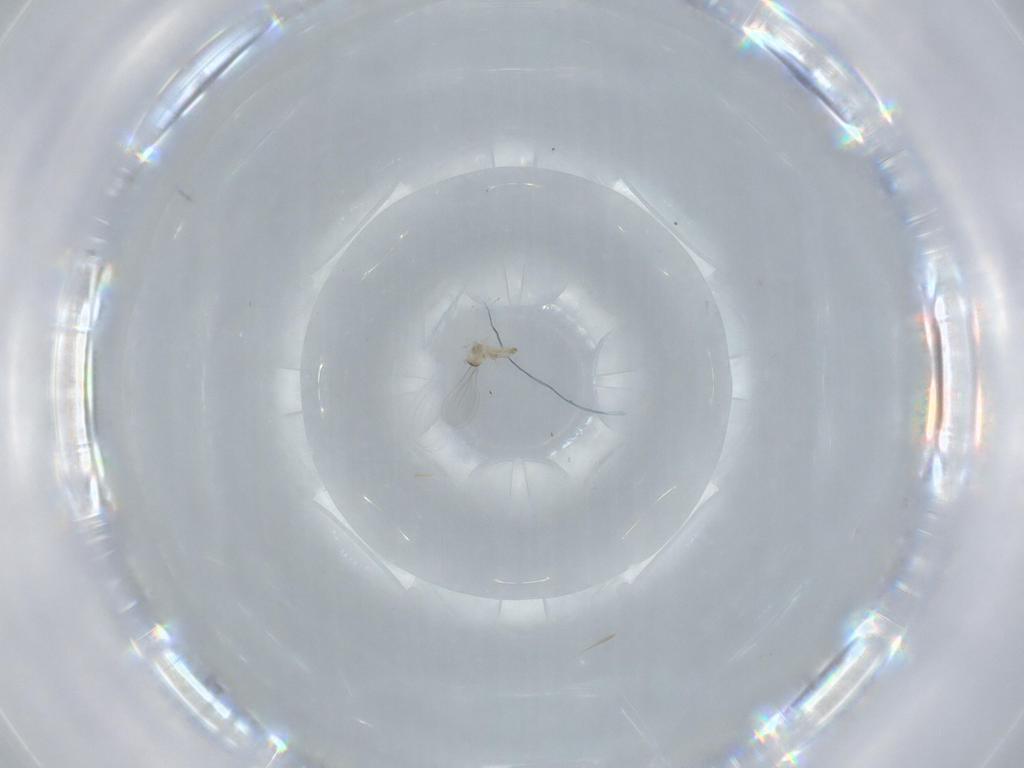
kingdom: Animalia
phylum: Arthropoda
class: Insecta
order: Diptera
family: Cecidomyiidae
